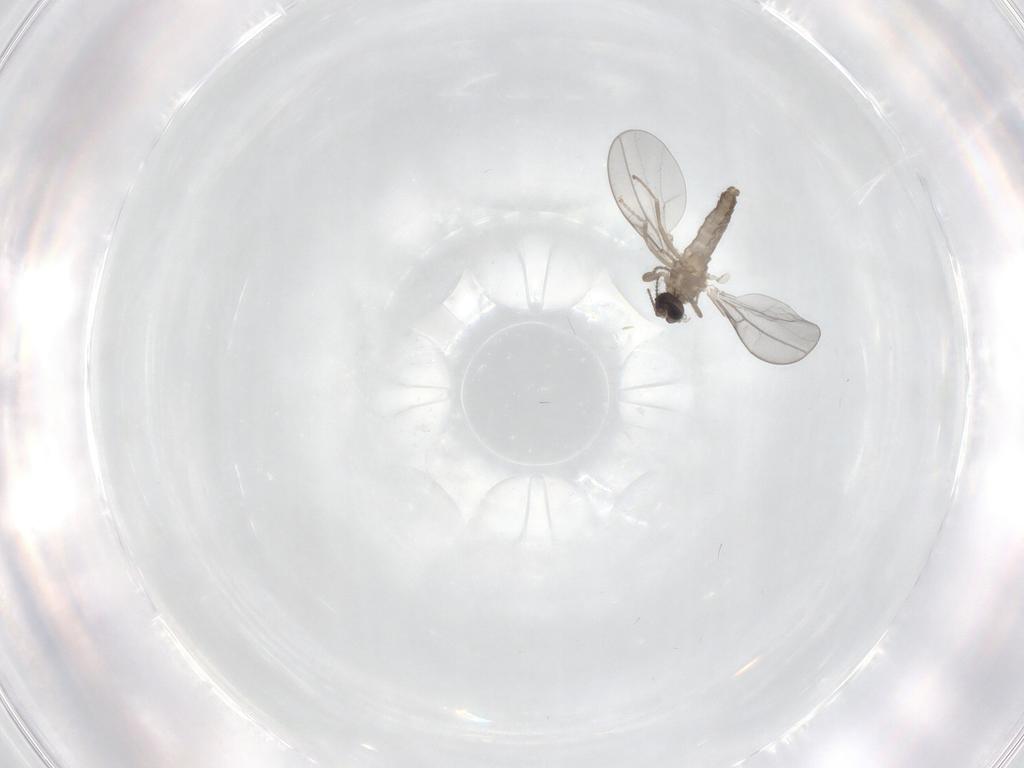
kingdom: Animalia
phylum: Arthropoda
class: Insecta
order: Diptera
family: Cecidomyiidae
